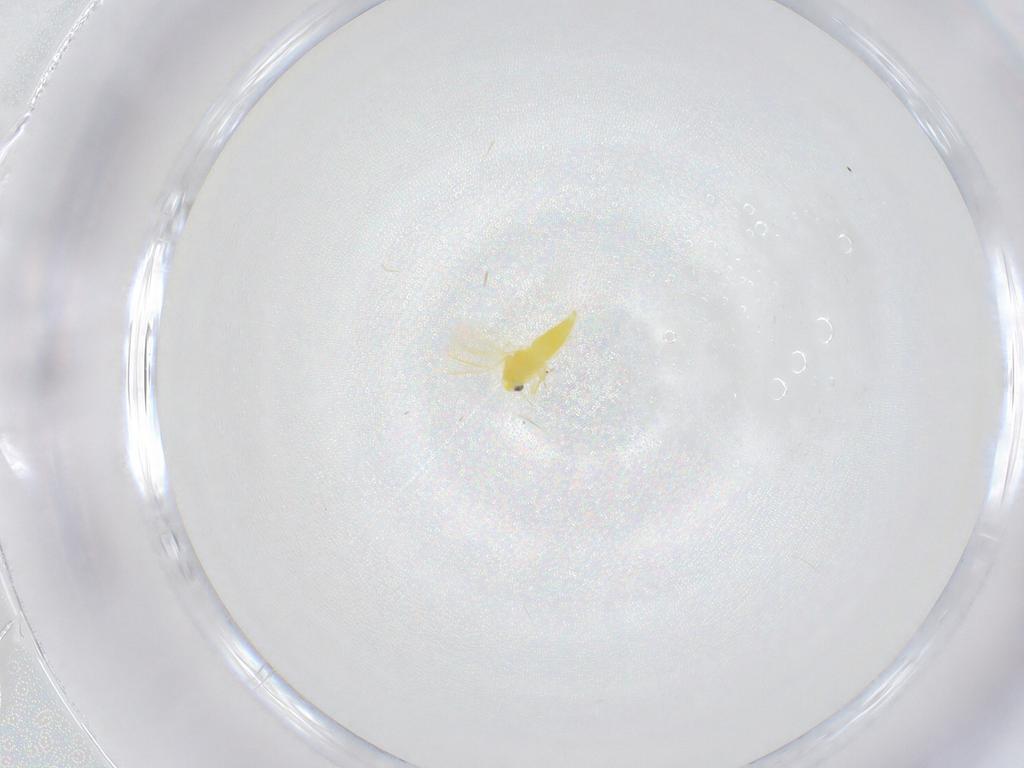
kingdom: Animalia
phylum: Arthropoda
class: Insecta
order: Hemiptera
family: Aleyrodidae
